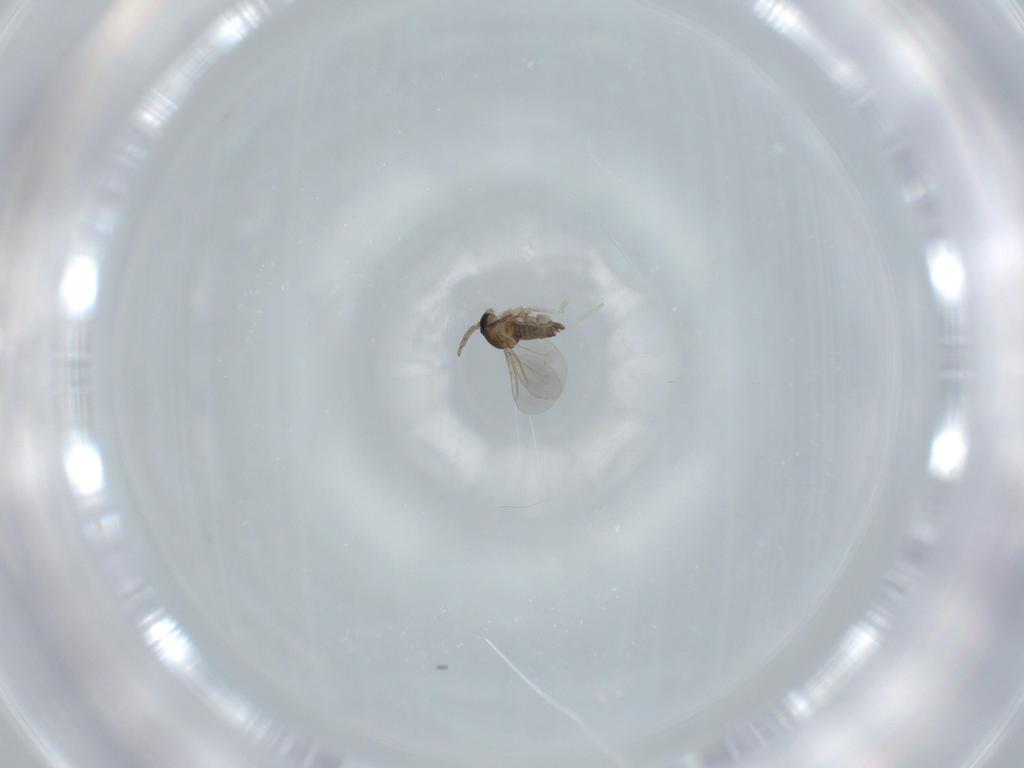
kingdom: Animalia
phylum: Arthropoda
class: Insecta
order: Diptera
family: Cecidomyiidae
